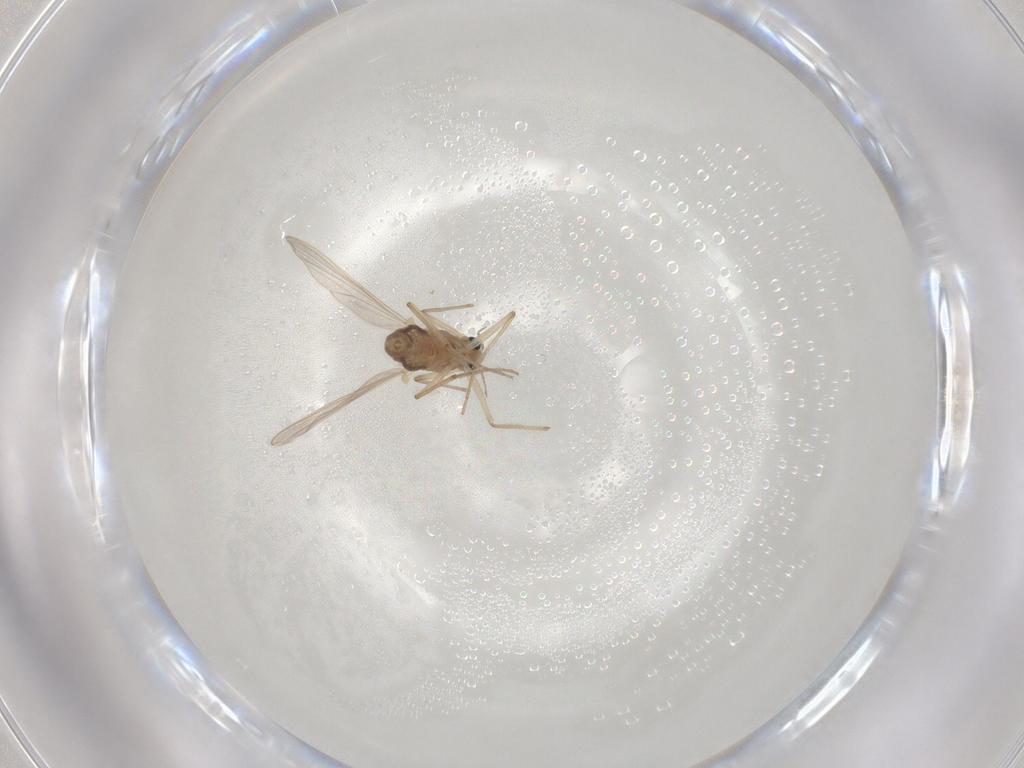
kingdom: Animalia
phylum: Arthropoda
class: Insecta
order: Diptera
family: Chironomidae
